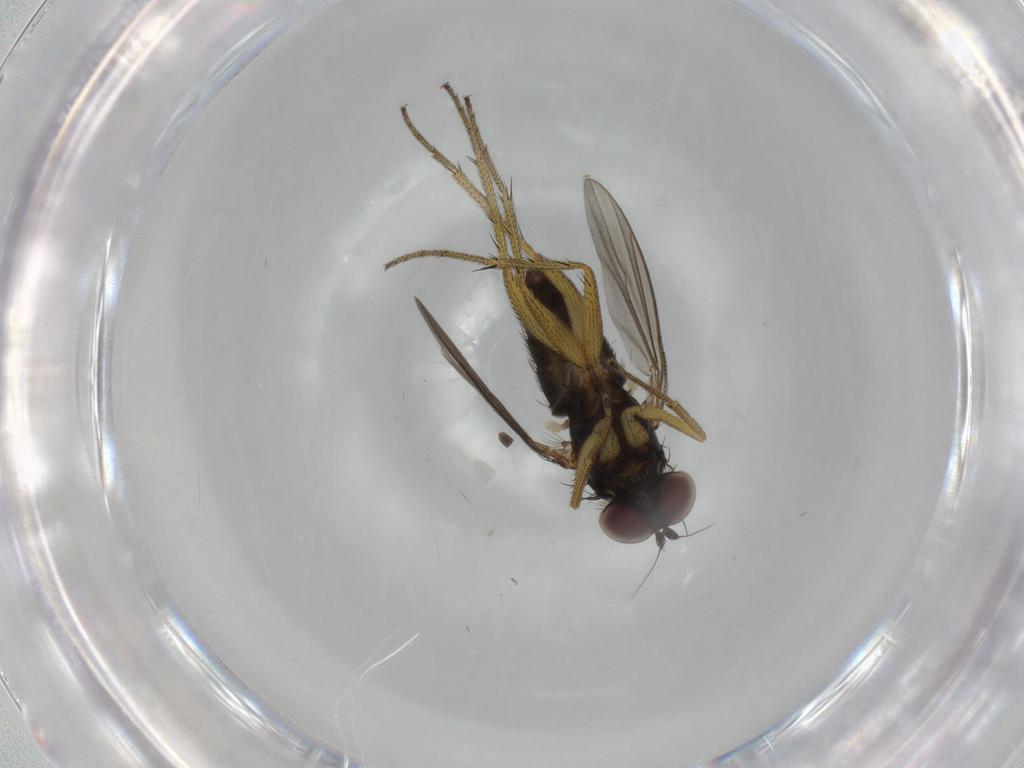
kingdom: Animalia
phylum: Arthropoda
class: Insecta
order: Diptera
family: Dolichopodidae
